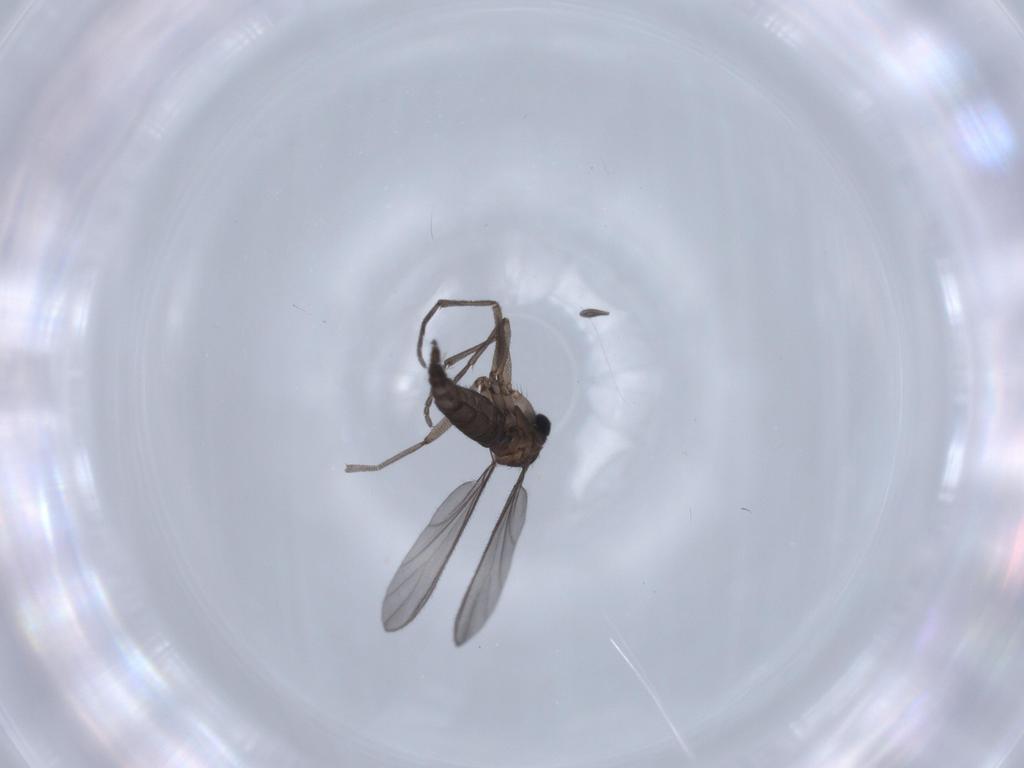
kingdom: Animalia
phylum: Arthropoda
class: Insecta
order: Diptera
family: Sciaridae
